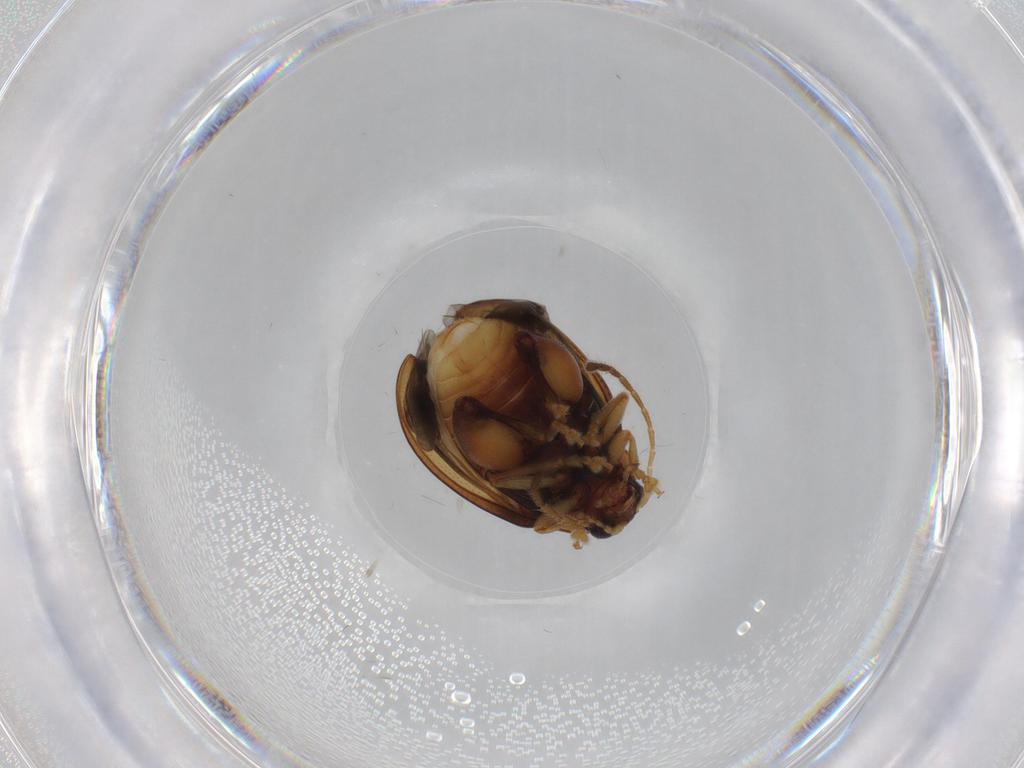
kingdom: Animalia
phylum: Arthropoda
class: Insecta
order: Coleoptera
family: Chrysomelidae
